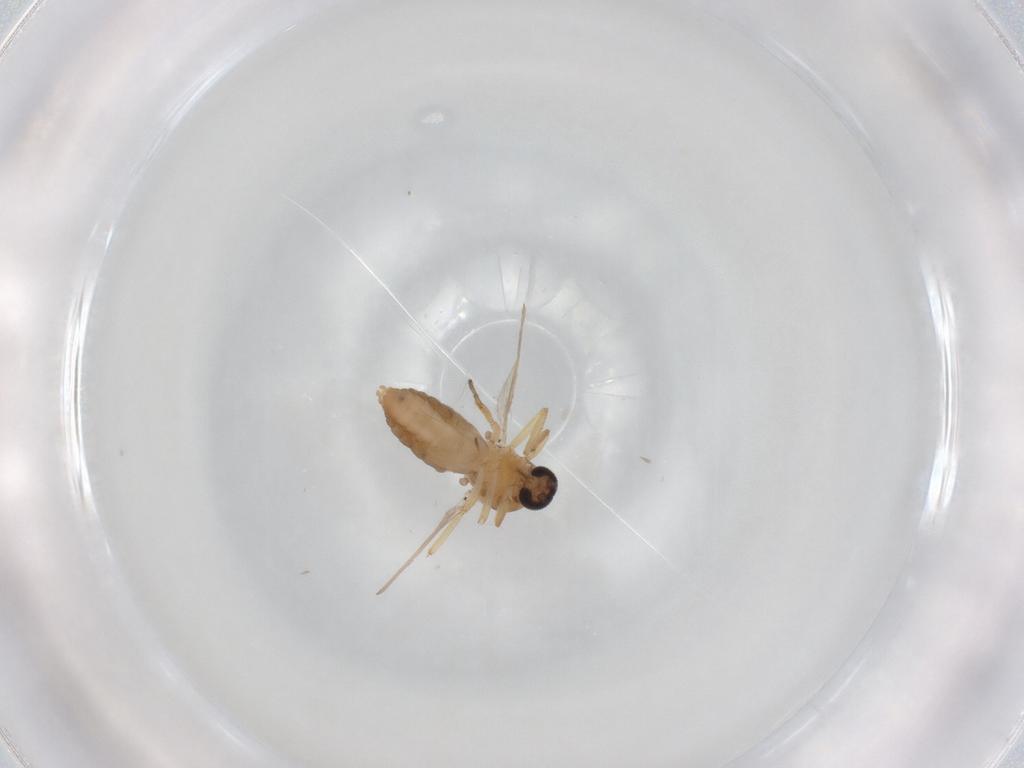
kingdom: Animalia
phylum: Arthropoda
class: Insecta
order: Diptera
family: Ceratopogonidae
